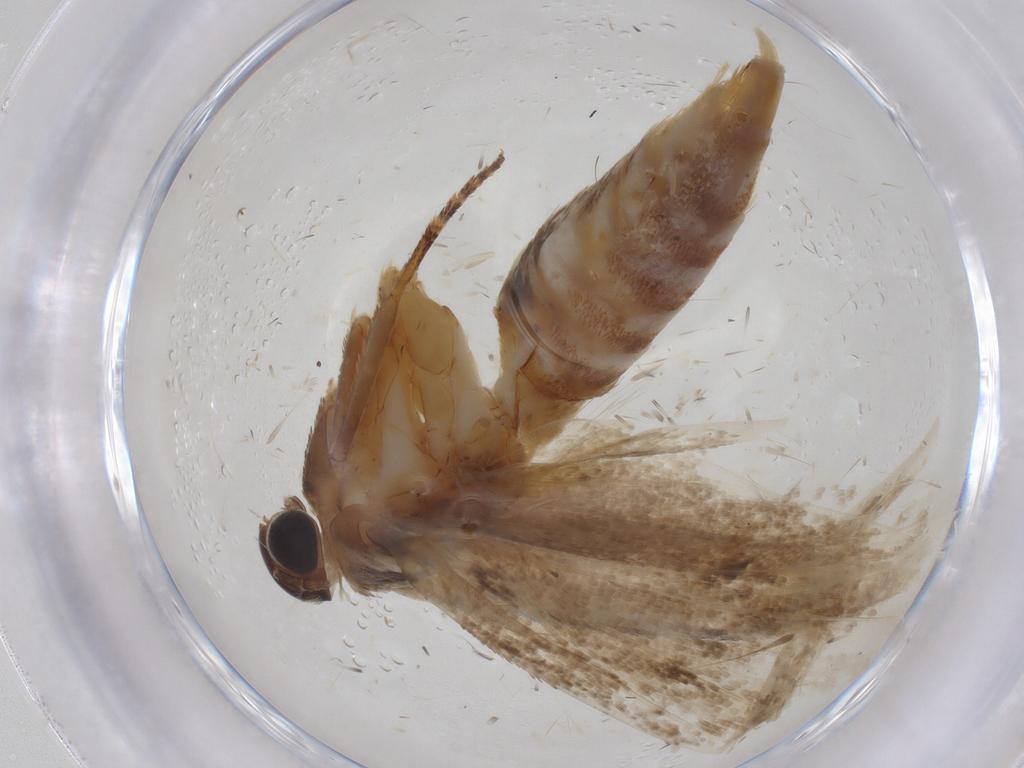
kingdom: Animalia
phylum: Arthropoda
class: Insecta
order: Lepidoptera
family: Oecophoridae
